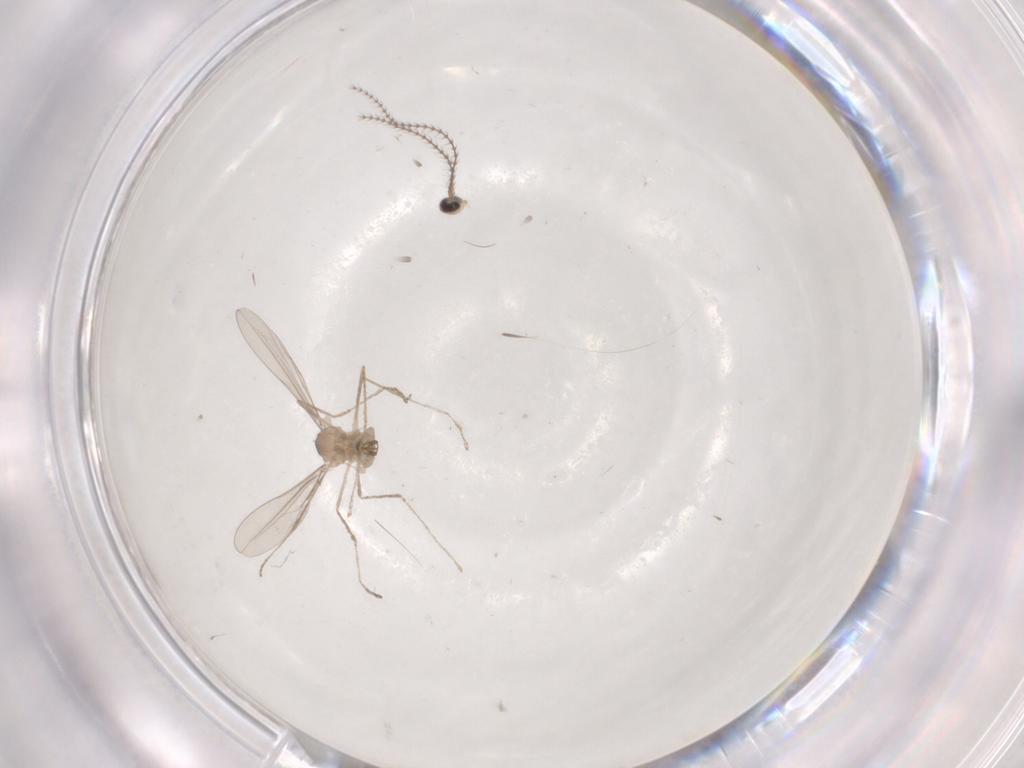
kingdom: Animalia
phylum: Arthropoda
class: Insecta
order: Diptera
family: Cecidomyiidae
